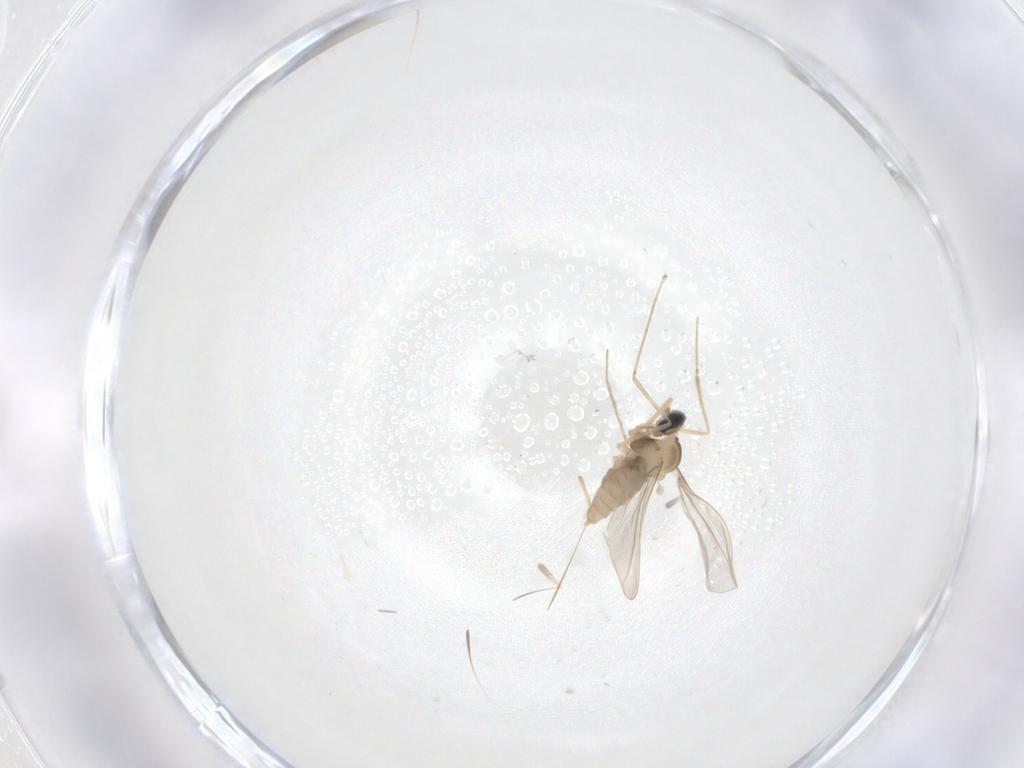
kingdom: Animalia
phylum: Arthropoda
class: Insecta
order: Diptera
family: Cecidomyiidae
